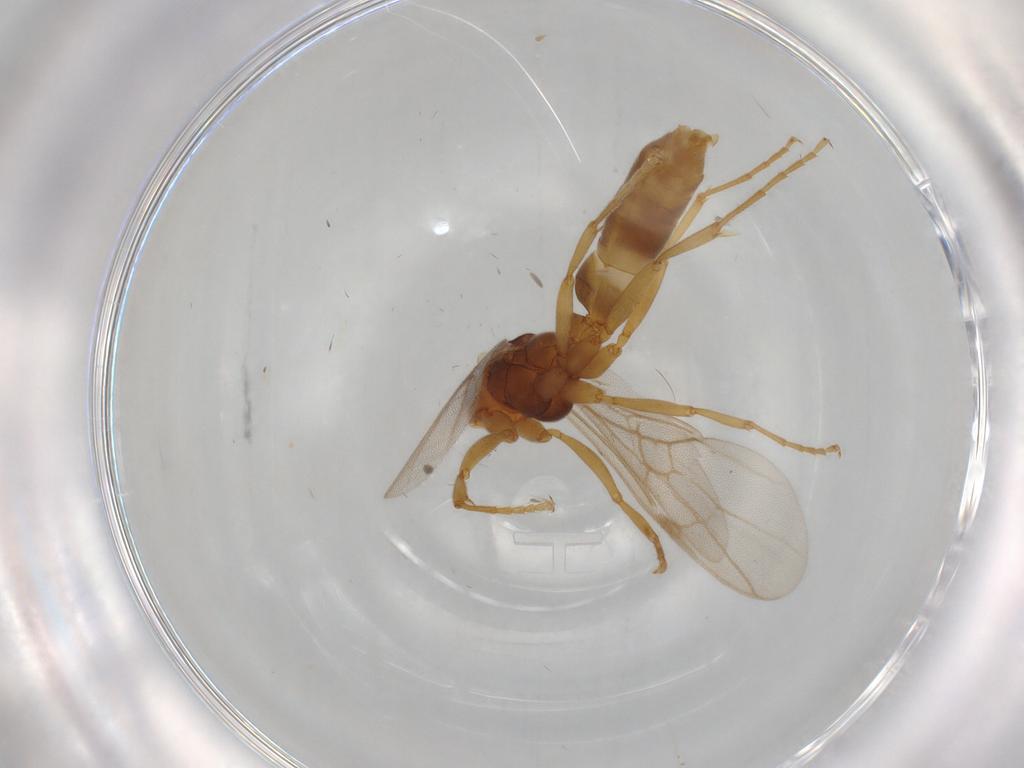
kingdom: Animalia
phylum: Arthropoda
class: Insecta
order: Hymenoptera
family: Formicidae
